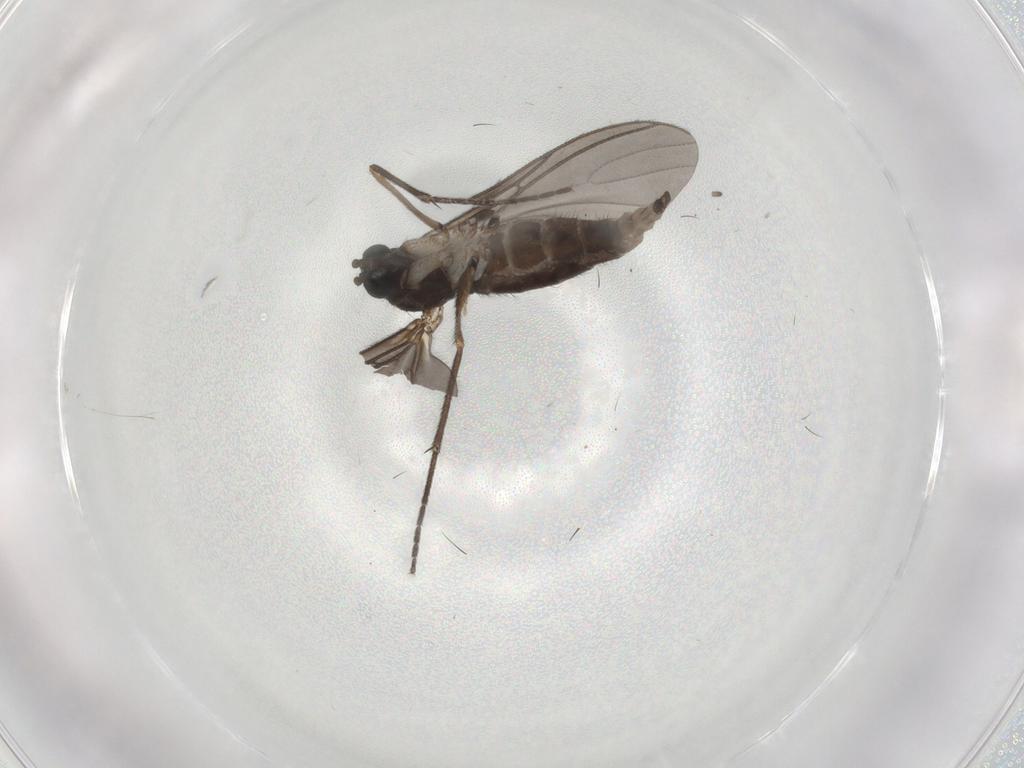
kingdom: Animalia
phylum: Arthropoda
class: Insecta
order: Diptera
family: Sciaridae
